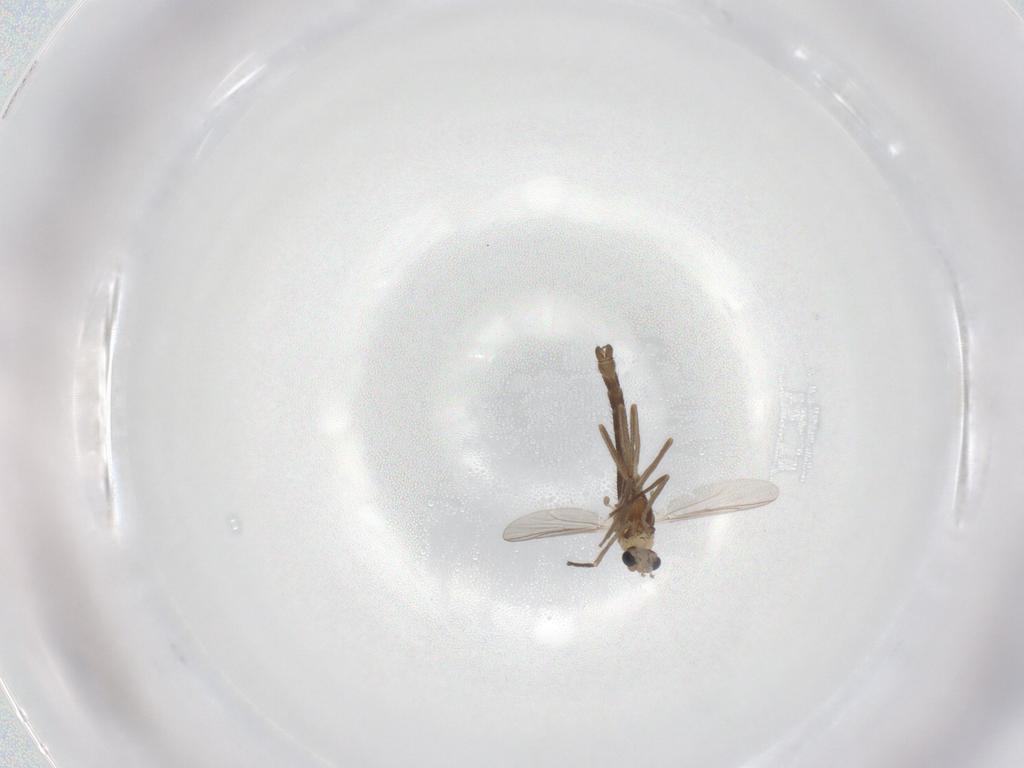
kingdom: Animalia
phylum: Arthropoda
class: Insecta
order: Diptera
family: Chironomidae
